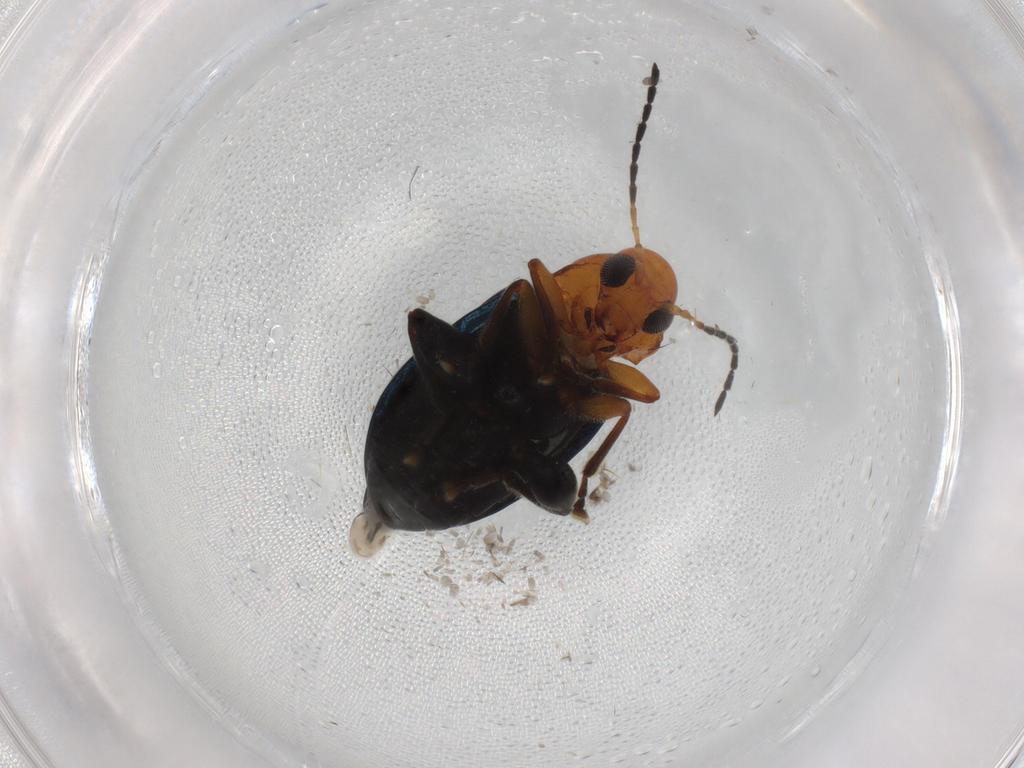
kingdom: Animalia
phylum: Arthropoda
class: Insecta
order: Coleoptera
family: Chrysomelidae
